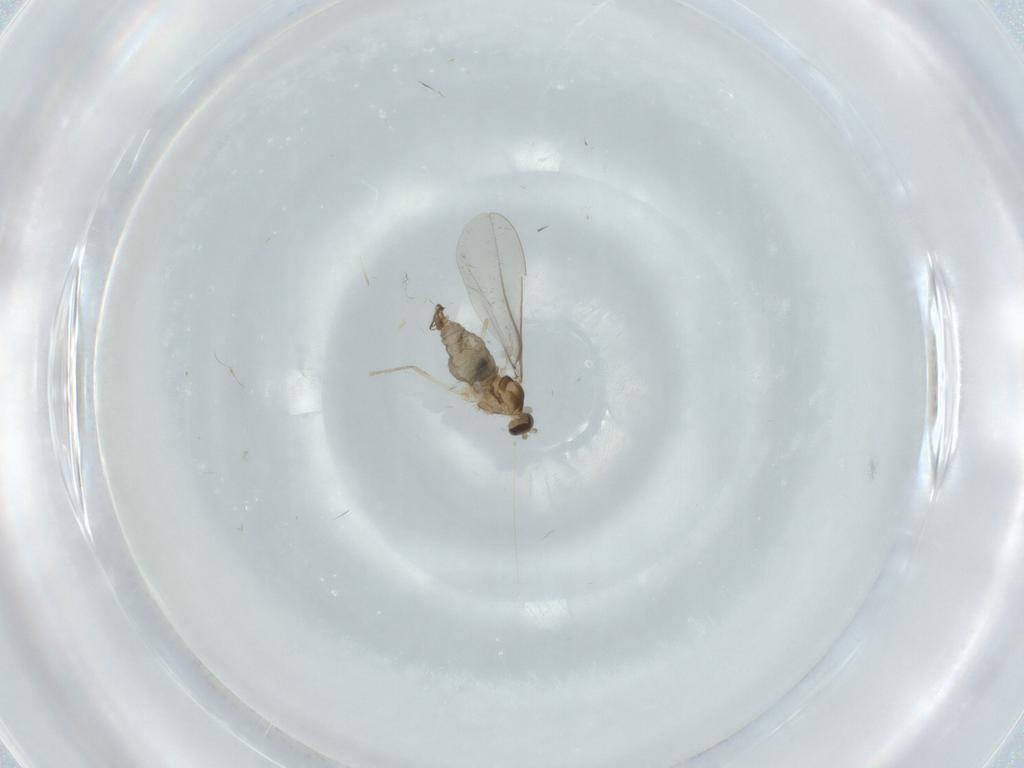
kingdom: Animalia
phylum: Arthropoda
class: Insecta
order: Diptera
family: Cecidomyiidae
